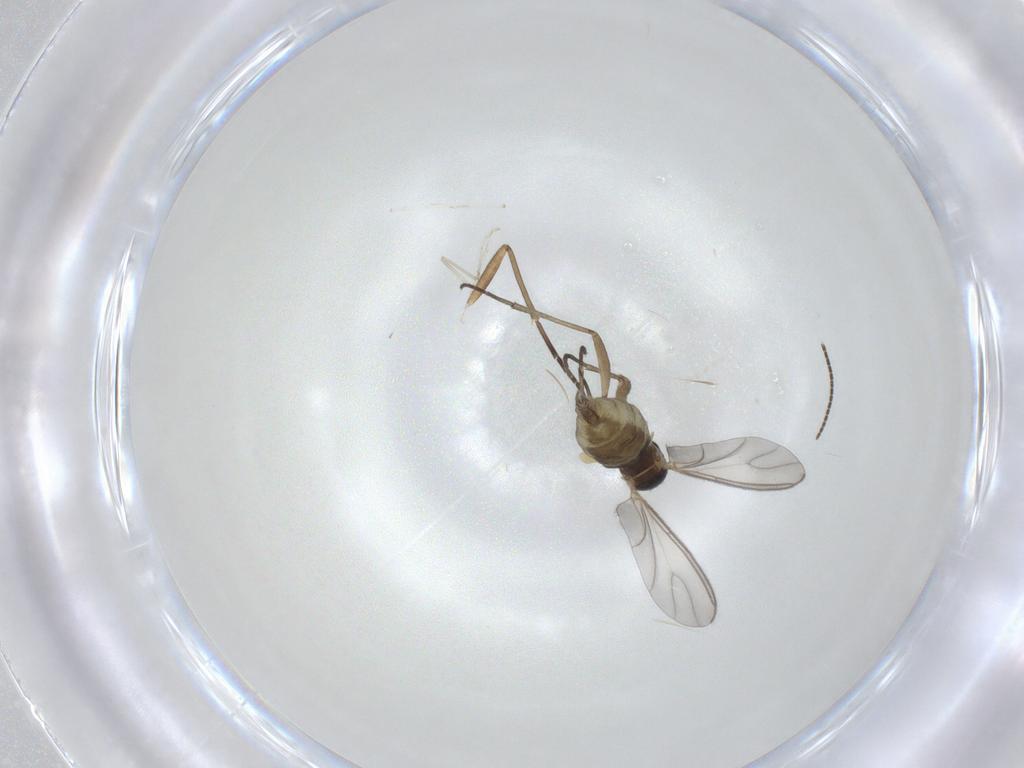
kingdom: Animalia
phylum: Arthropoda
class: Insecta
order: Diptera
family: Sciaridae
